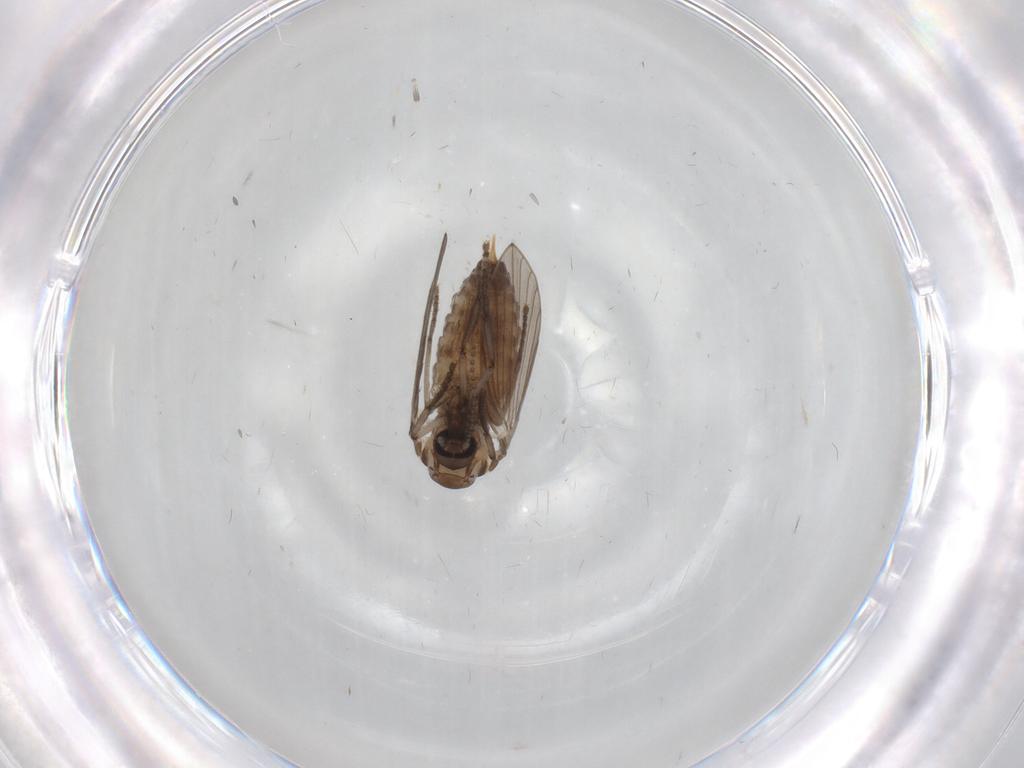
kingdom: Animalia
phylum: Arthropoda
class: Insecta
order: Diptera
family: Psychodidae
